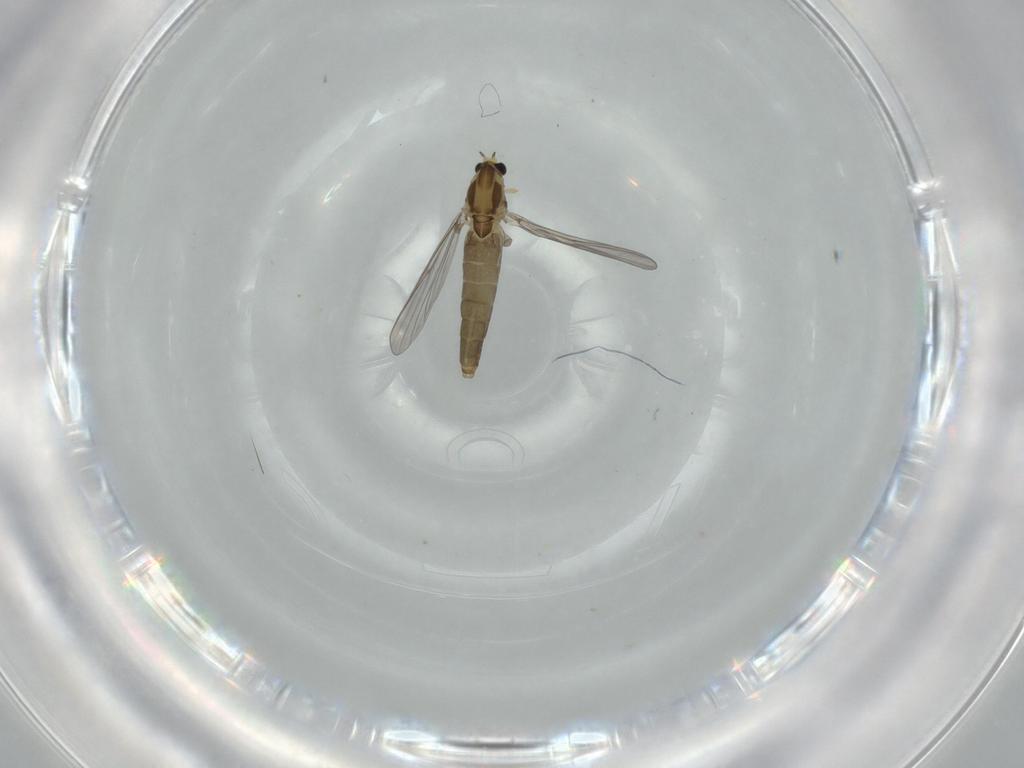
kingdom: Animalia
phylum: Arthropoda
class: Insecta
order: Diptera
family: Chironomidae
